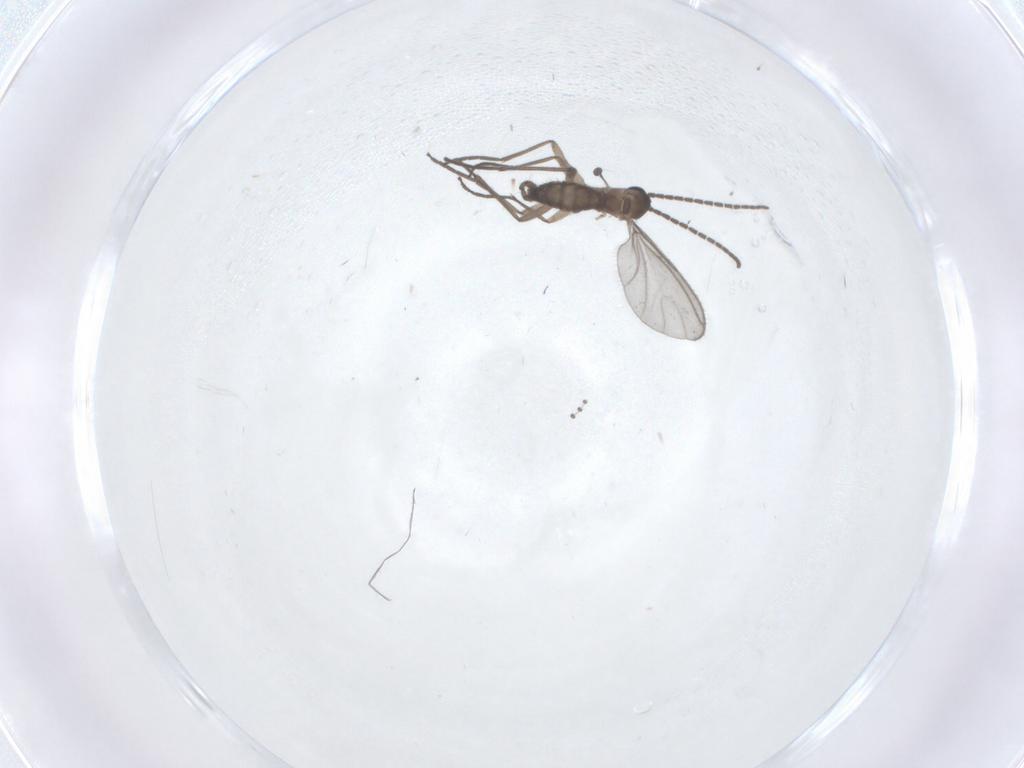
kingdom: Animalia
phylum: Arthropoda
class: Insecta
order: Diptera
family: Sciaridae
